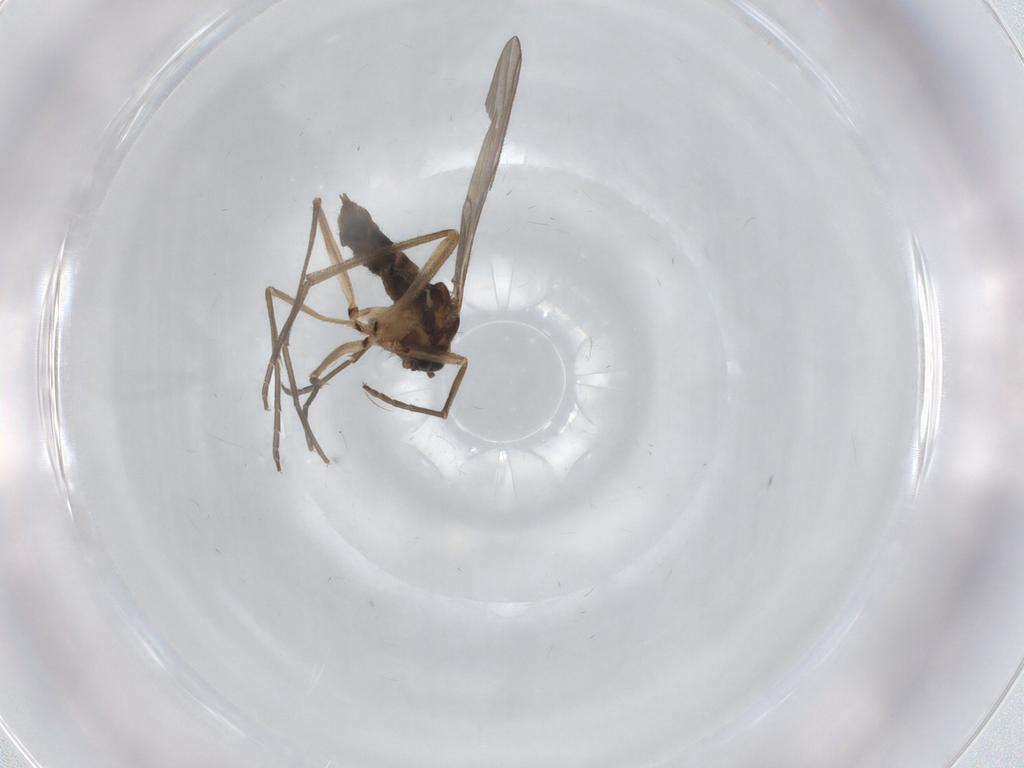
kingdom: Animalia
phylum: Arthropoda
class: Insecta
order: Diptera
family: Sciaridae
